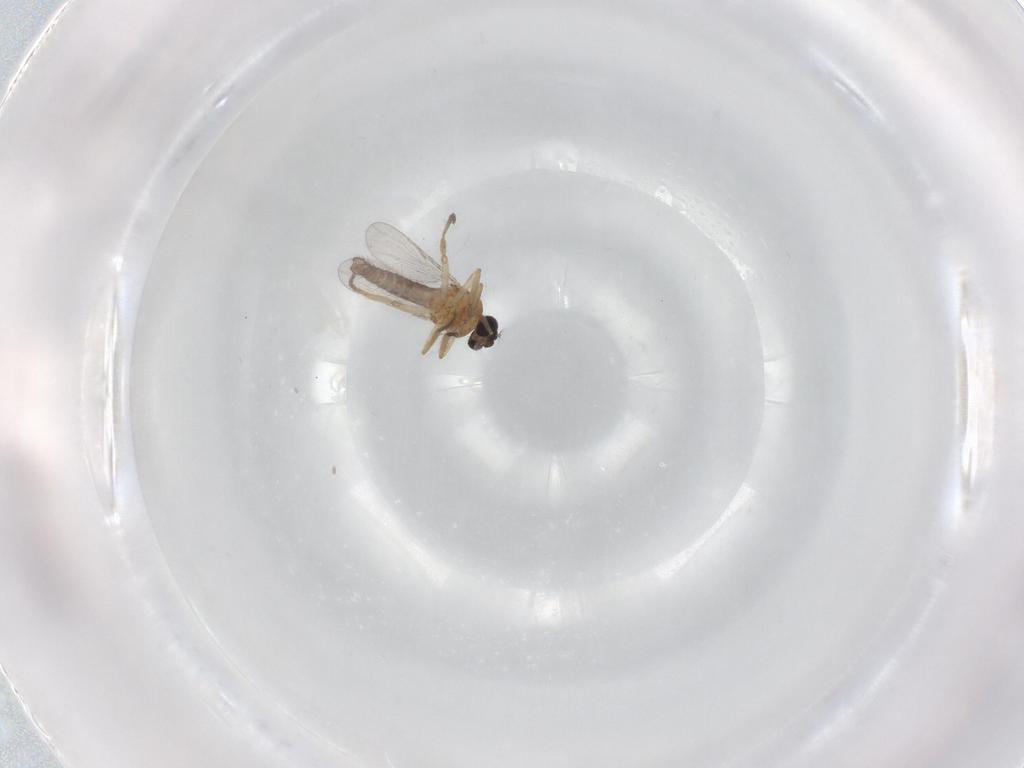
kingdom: Animalia
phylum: Arthropoda
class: Insecta
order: Diptera
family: Ceratopogonidae
